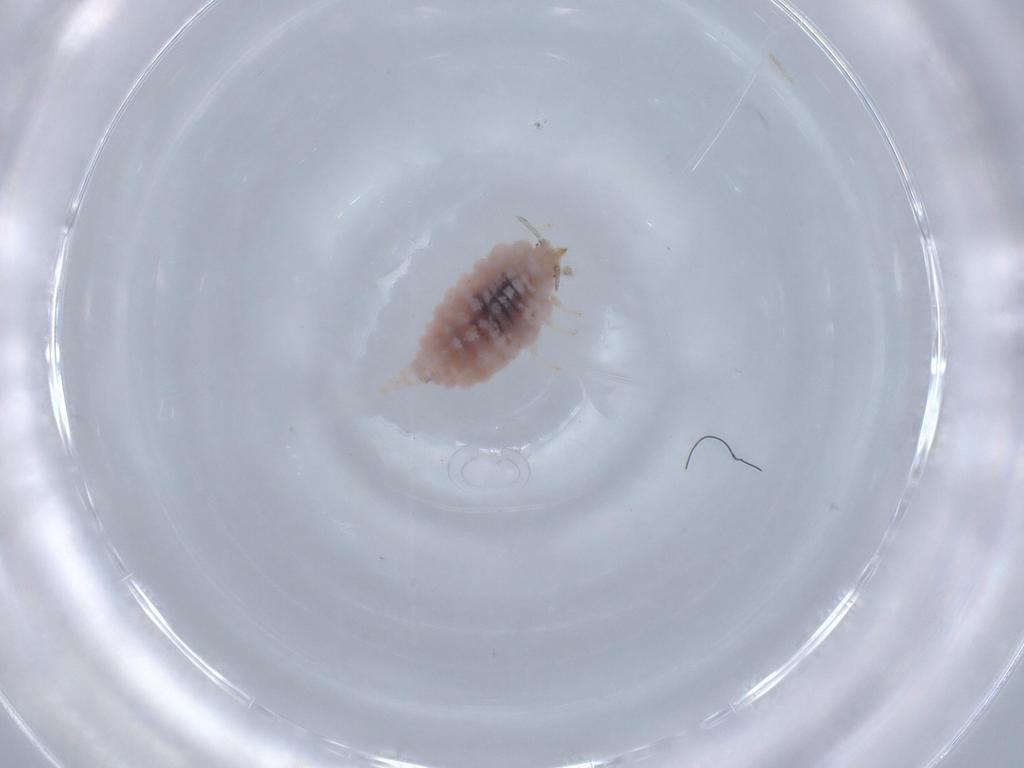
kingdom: Animalia
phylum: Arthropoda
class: Insecta
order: Neuroptera
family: Coniopterygidae
